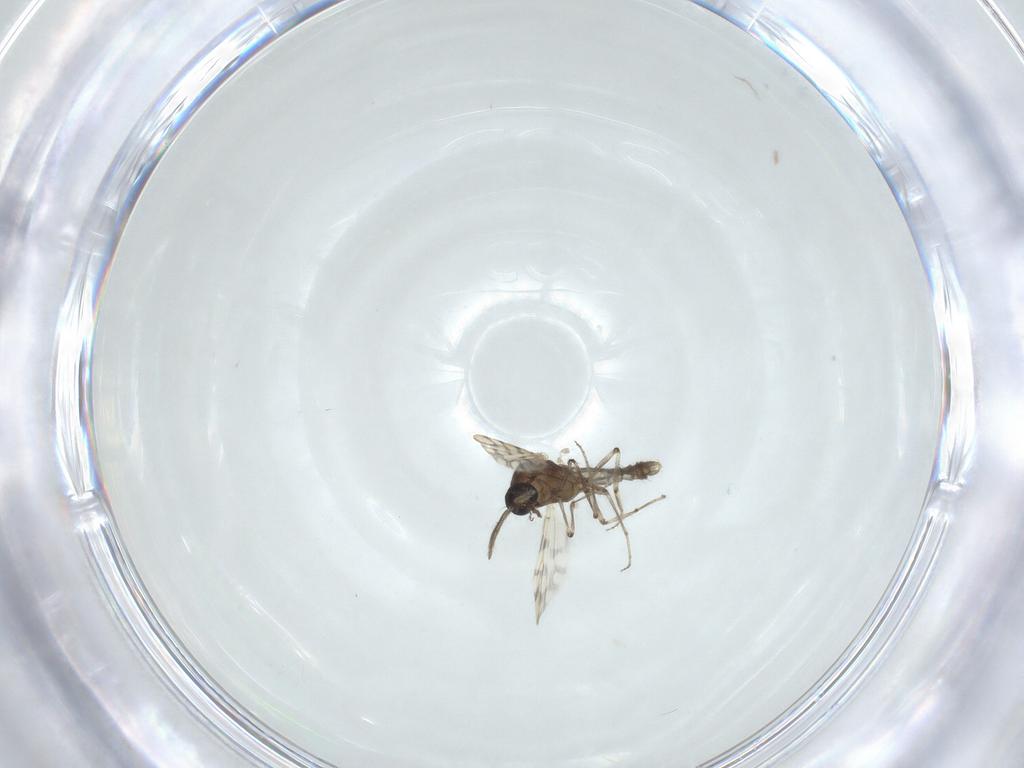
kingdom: Animalia
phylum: Arthropoda
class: Insecta
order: Diptera
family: Ceratopogonidae
